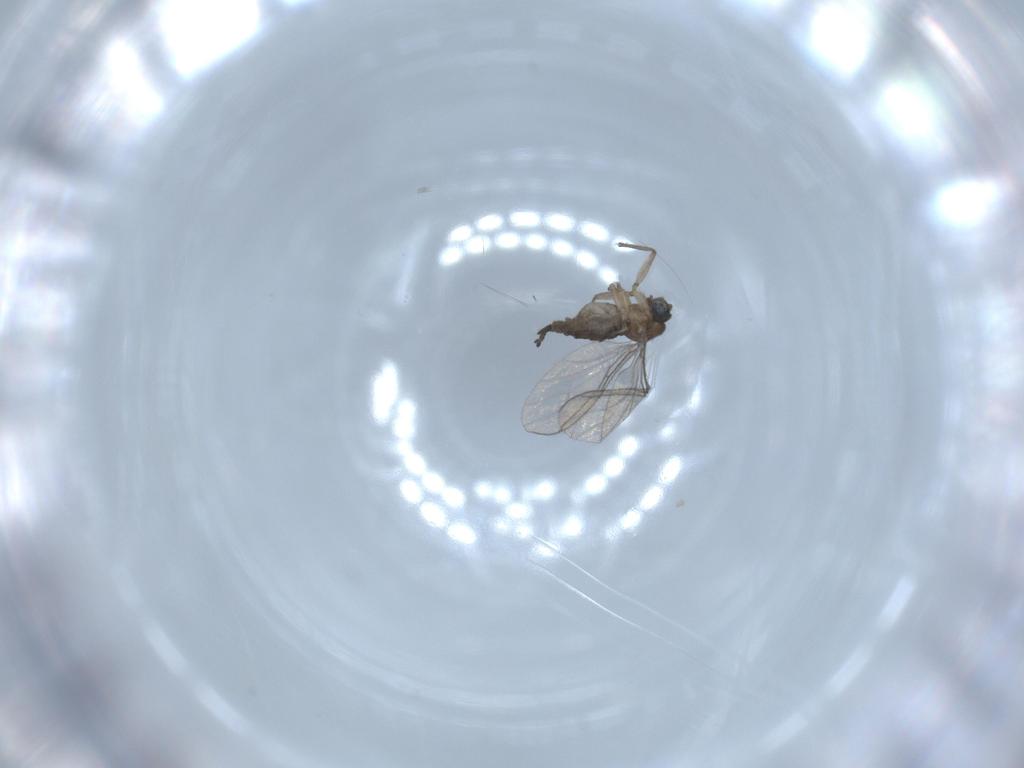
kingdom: Animalia
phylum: Arthropoda
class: Insecta
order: Diptera
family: Sciaridae
